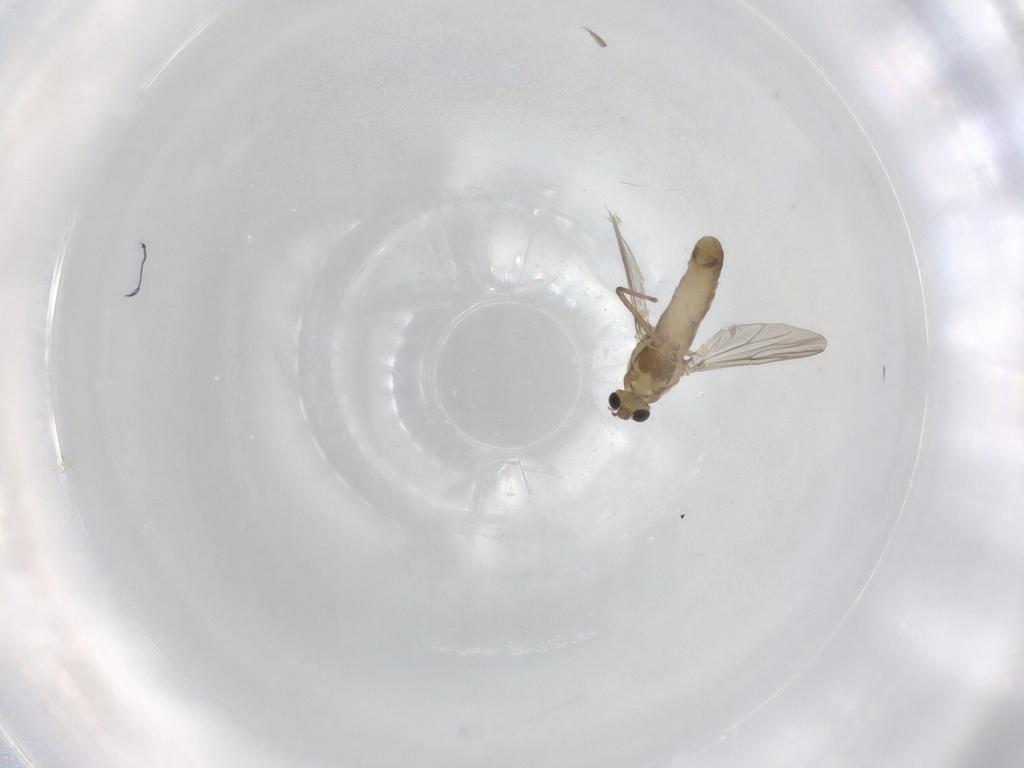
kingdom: Animalia
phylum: Arthropoda
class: Insecta
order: Diptera
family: Chironomidae
